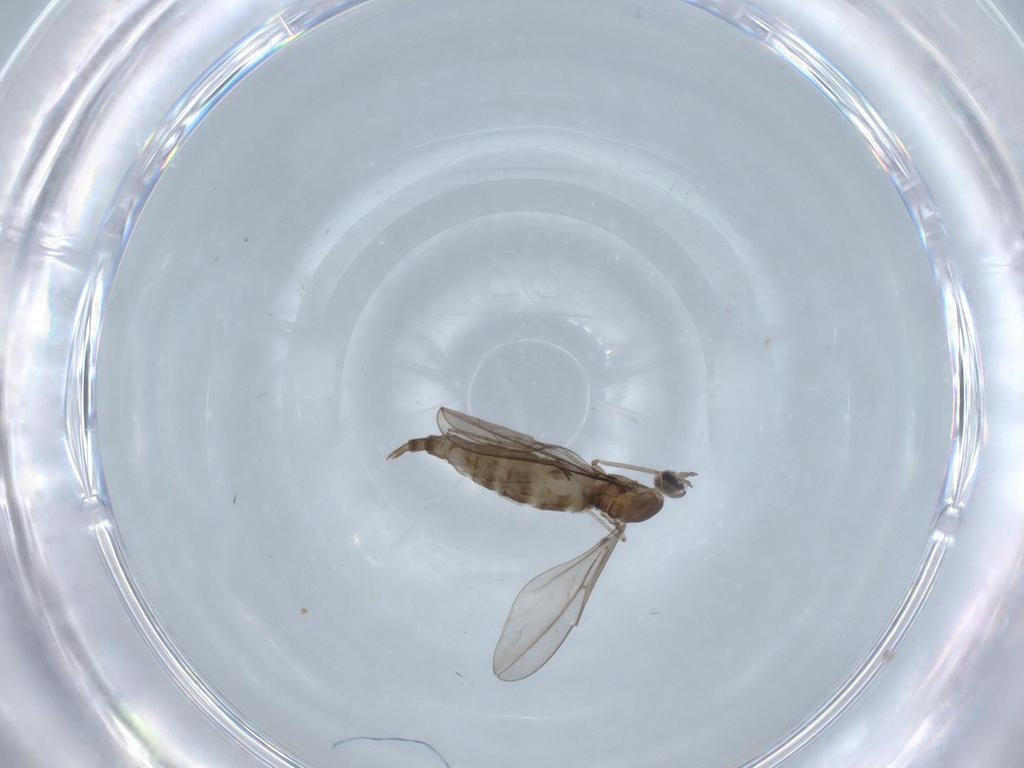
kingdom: Animalia
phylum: Arthropoda
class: Insecta
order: Diptera
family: Cecidomyiidae
